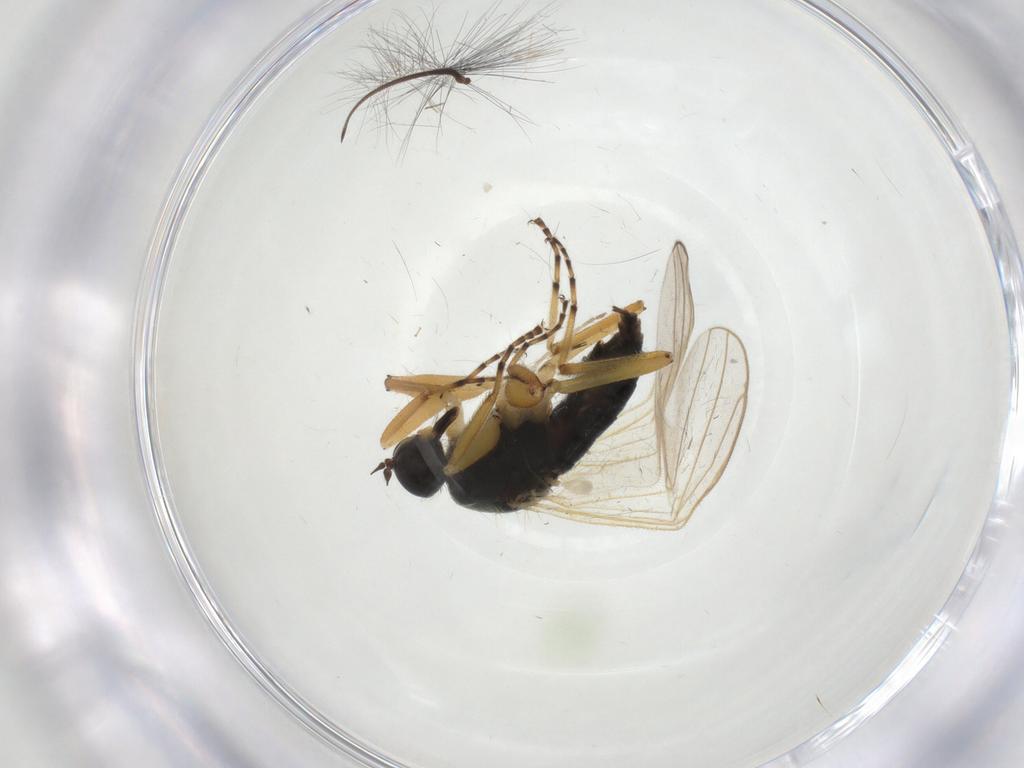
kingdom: Animalia
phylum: Arthropoda
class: Insecta
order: Diptera
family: Hybotidae
